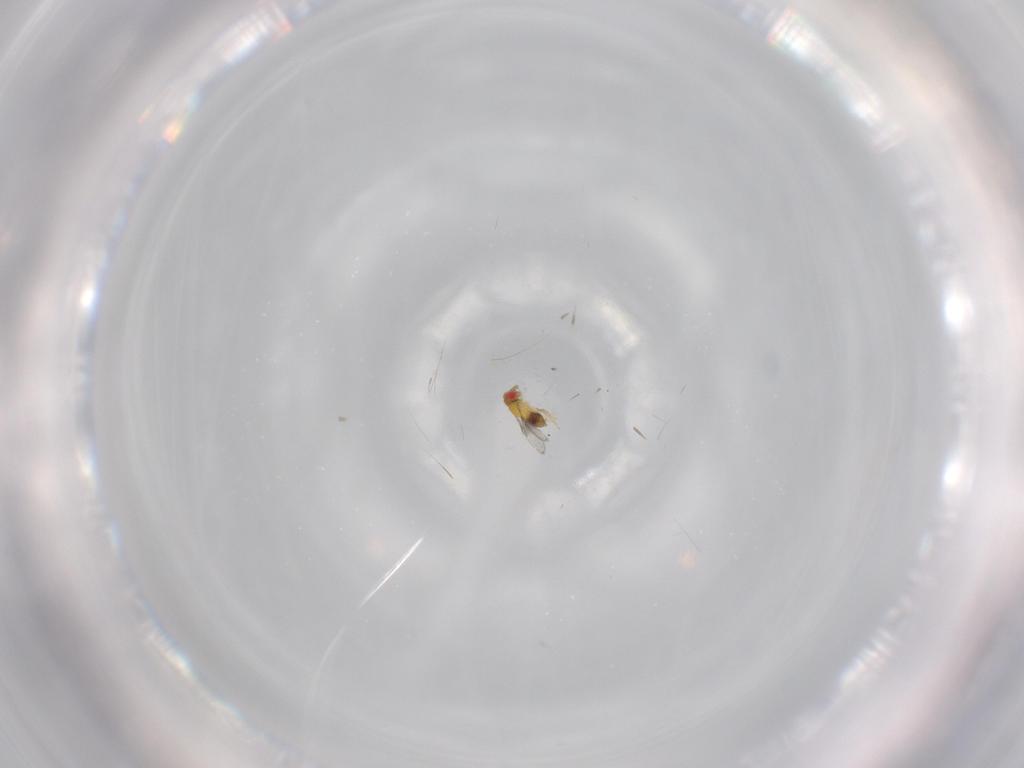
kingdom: Animalia
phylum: Arthropoda
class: Insecta
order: Hymenoptera
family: Trichogrammatidae
